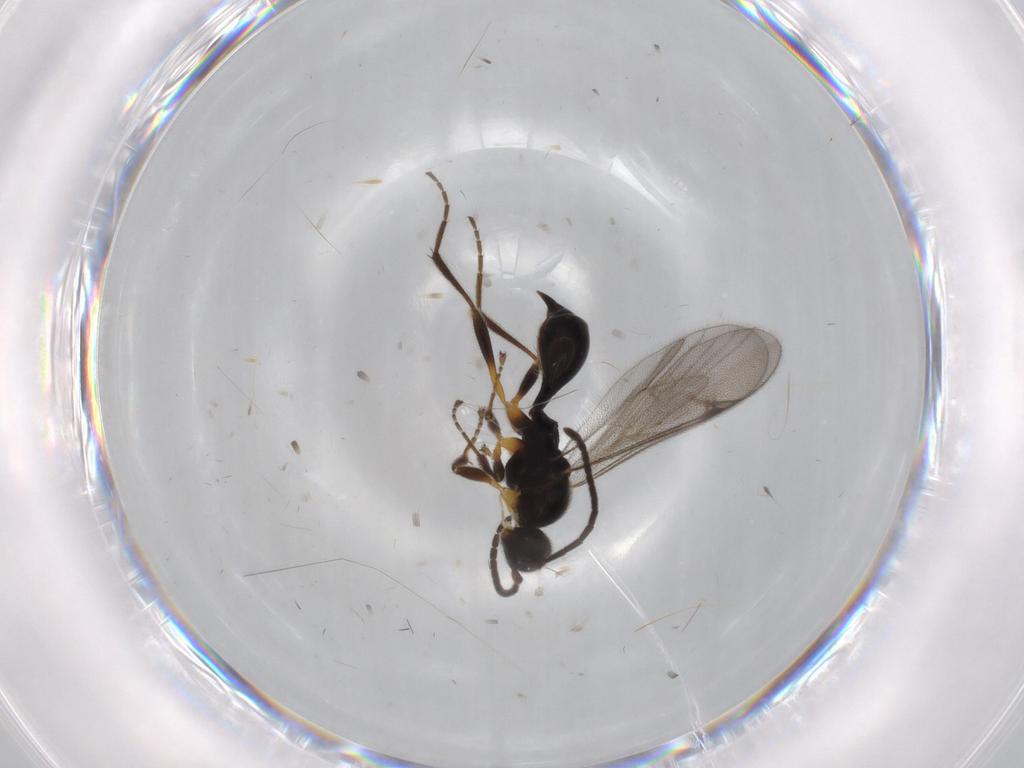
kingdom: Animalia
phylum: Arthropoda
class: Insecta
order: Hymenoptera
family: Proctotrupidae
